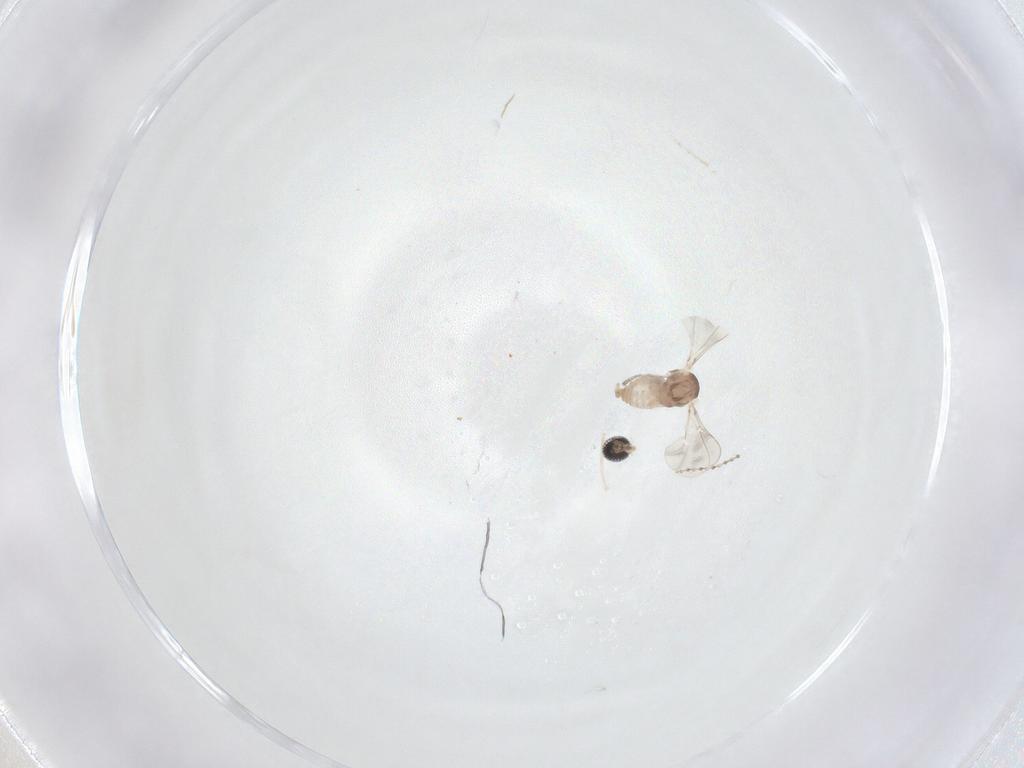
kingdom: Animalia
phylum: Arthropoda
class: Insecta
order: Diptera
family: Cecidomyiidae
